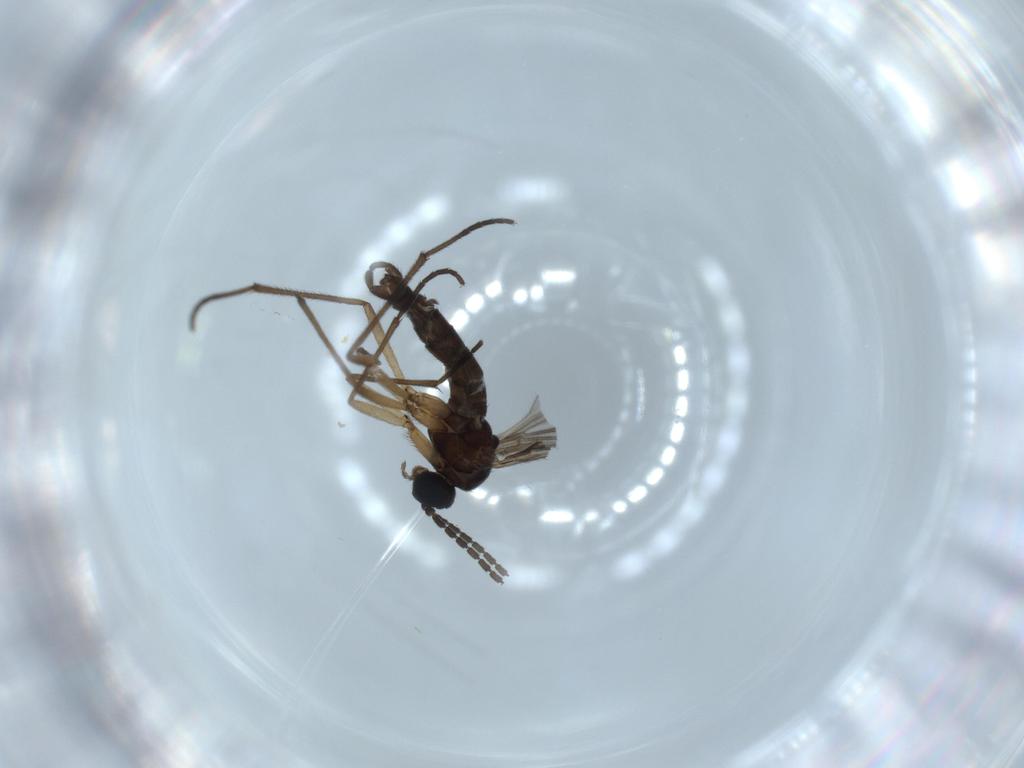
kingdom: Animalia
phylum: Arthropoda
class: Insecta
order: Diptera
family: Sciaridae
